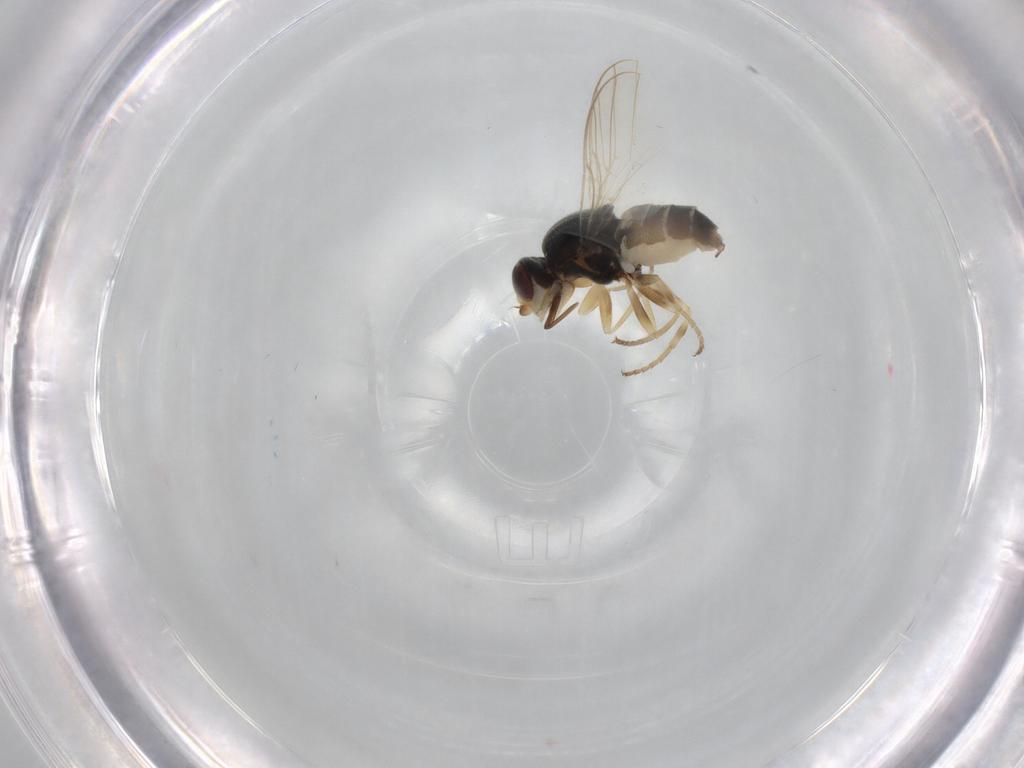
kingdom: Animalia
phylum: Arthropoda
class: Insecta
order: Diptera
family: Chloropidae
